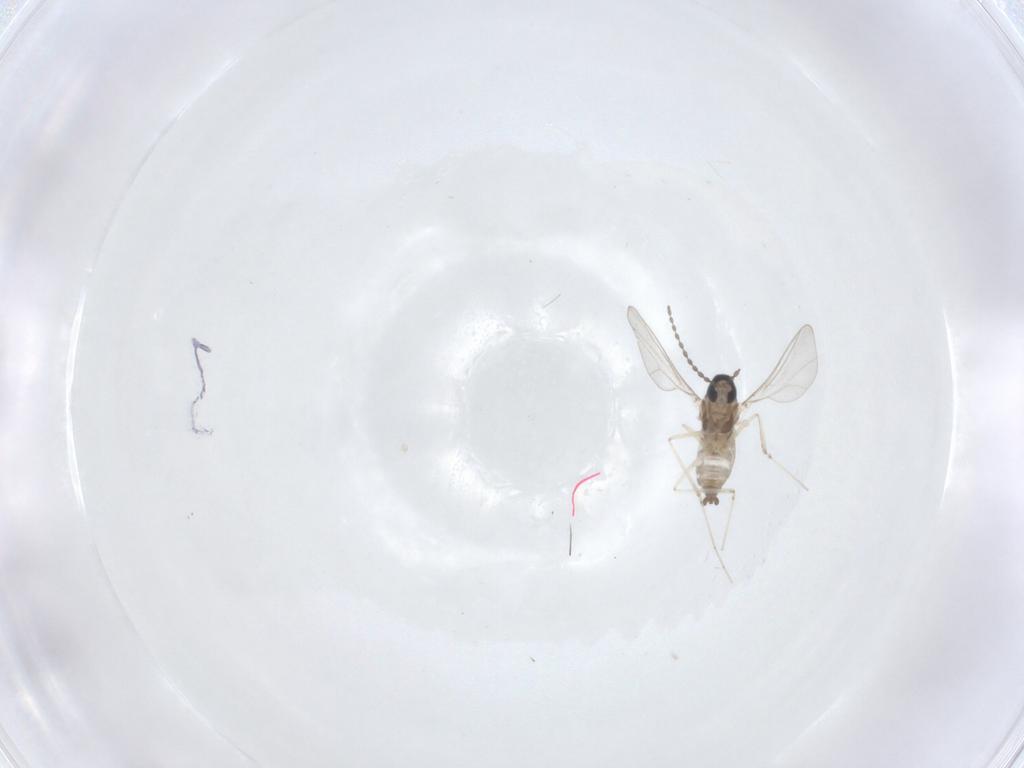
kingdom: Animalia
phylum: Arthropoda
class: Insecta
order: Diptera
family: Cecidomyiidae
